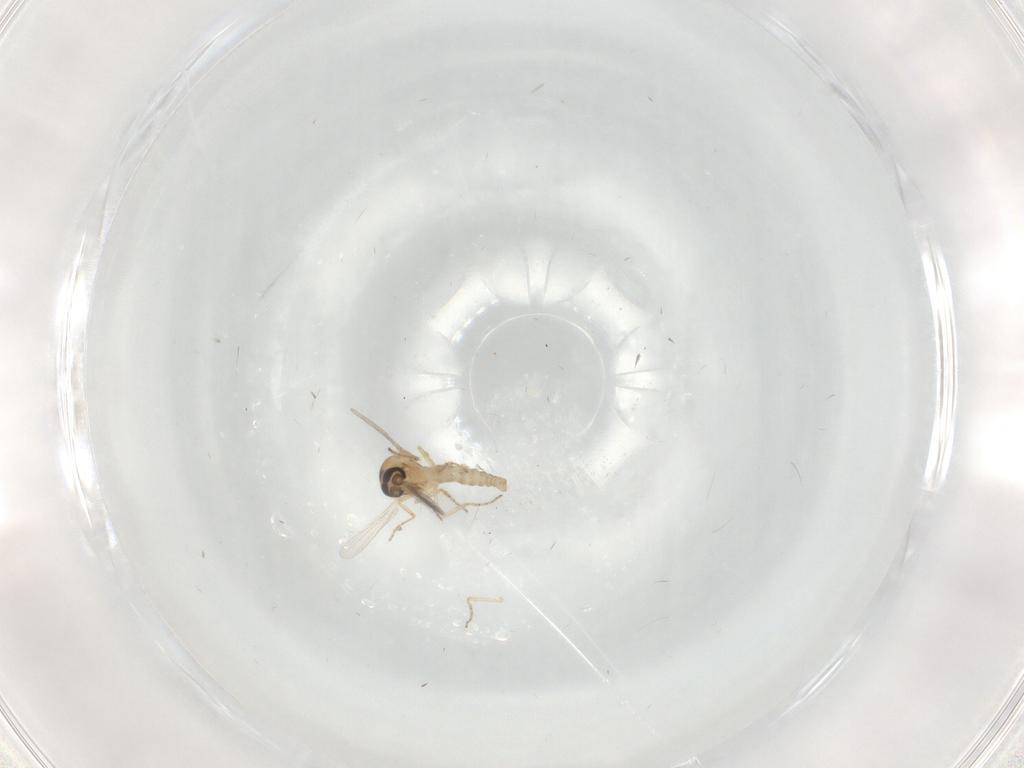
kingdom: Animalia
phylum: Arthropoda
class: Insecta
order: Diptera
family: Ceratopogonidae
